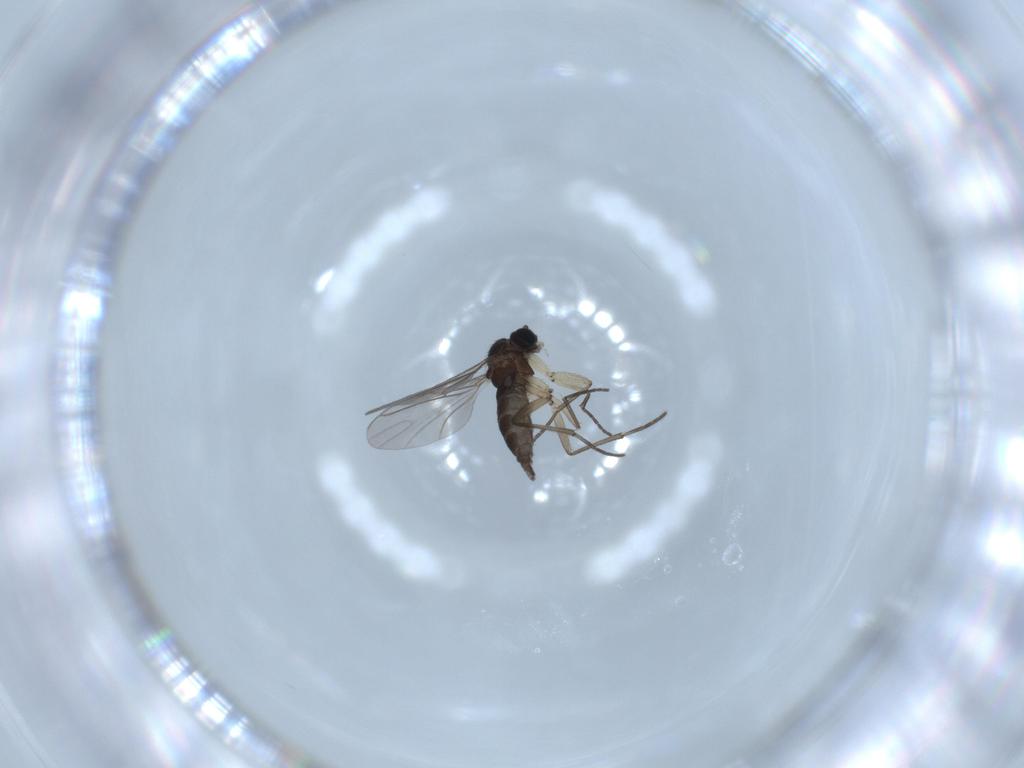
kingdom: Animalia
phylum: Arthropoda
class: Insecta
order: Diptera
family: Sciaridae
